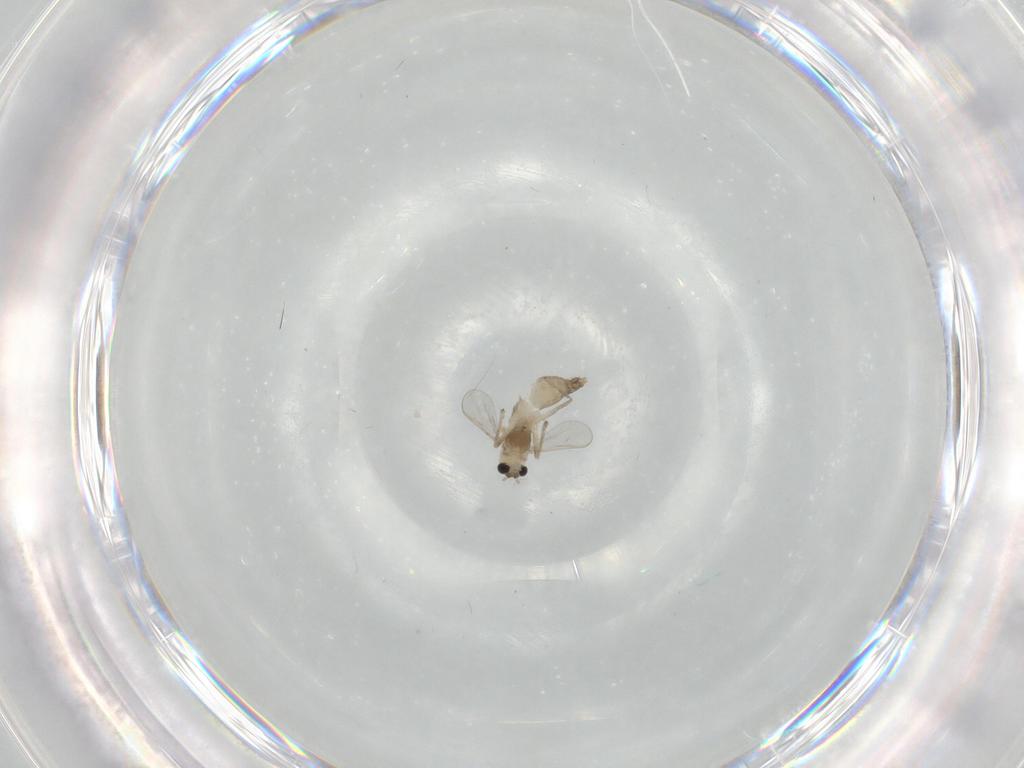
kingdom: Animalia
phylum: Arthropoda
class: Insecta
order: Diptera
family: Chironomidae
